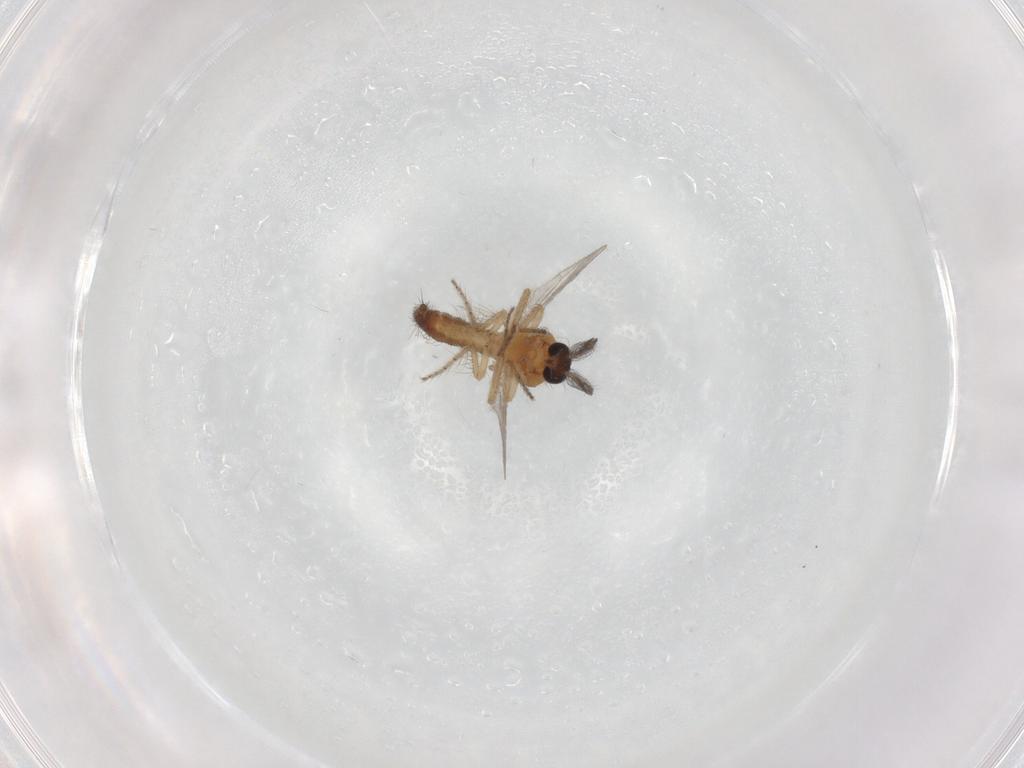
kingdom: Animalia
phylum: Arthropoda
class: Insecta
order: Diptera
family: Ceratopogonidae
